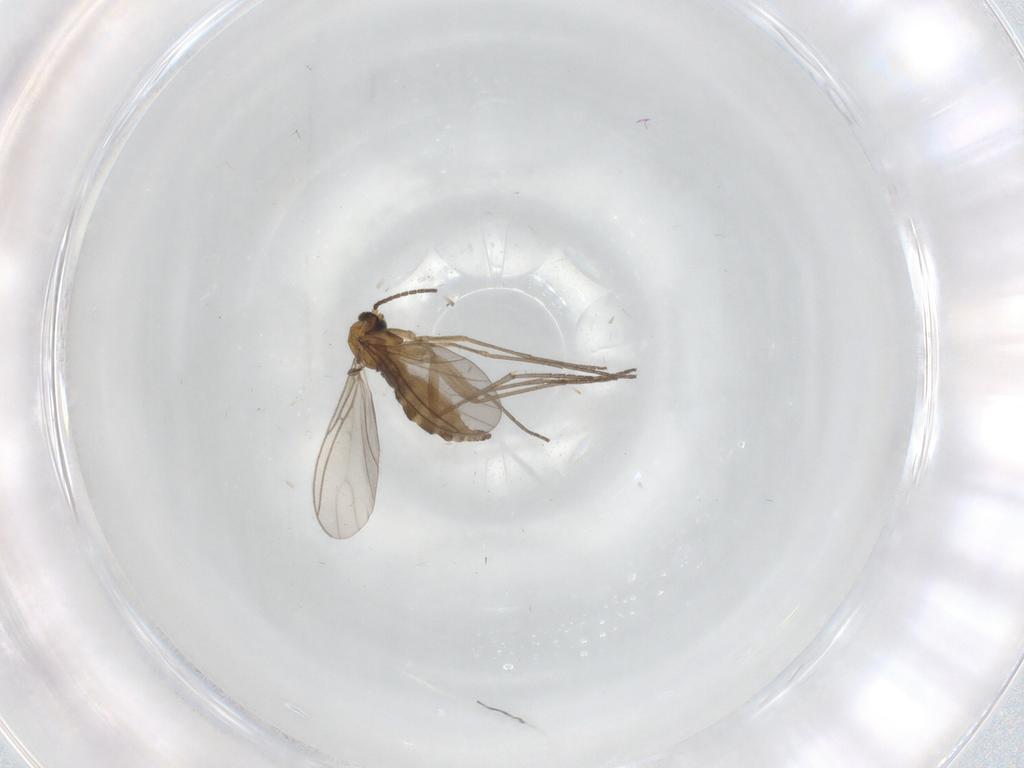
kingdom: Animalia
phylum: Arthropoda
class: Insecta
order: Diptera
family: Sciaridae
